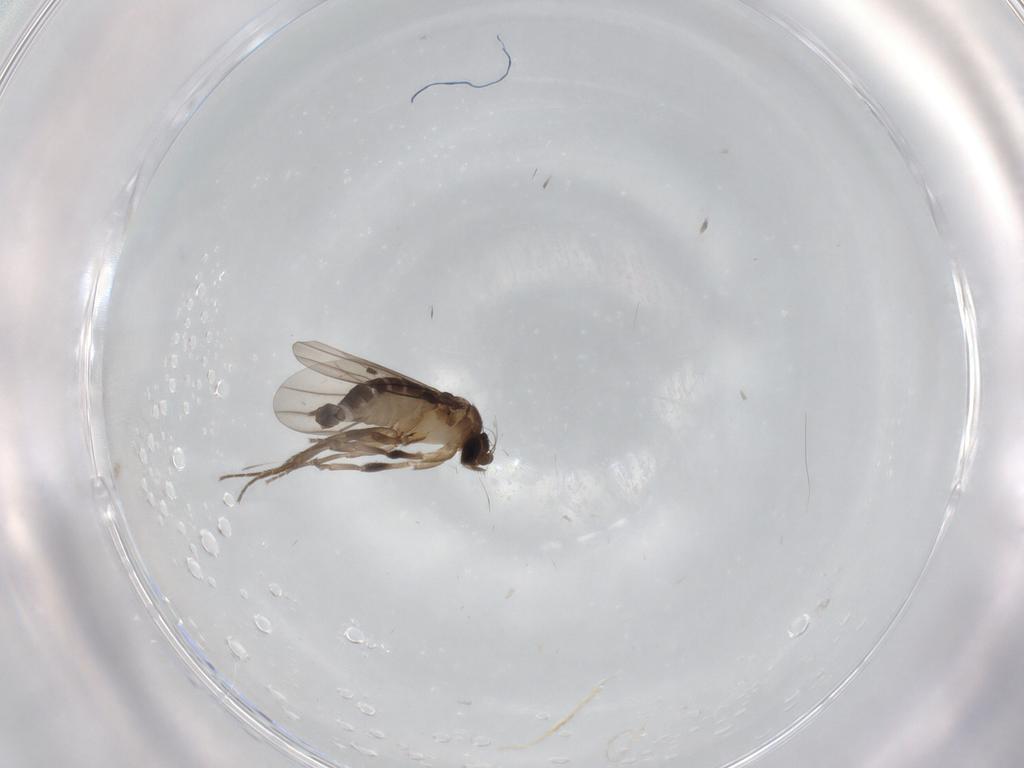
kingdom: Animalia
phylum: Arthropoda
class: Insecta
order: Diptera
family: Phoridae
